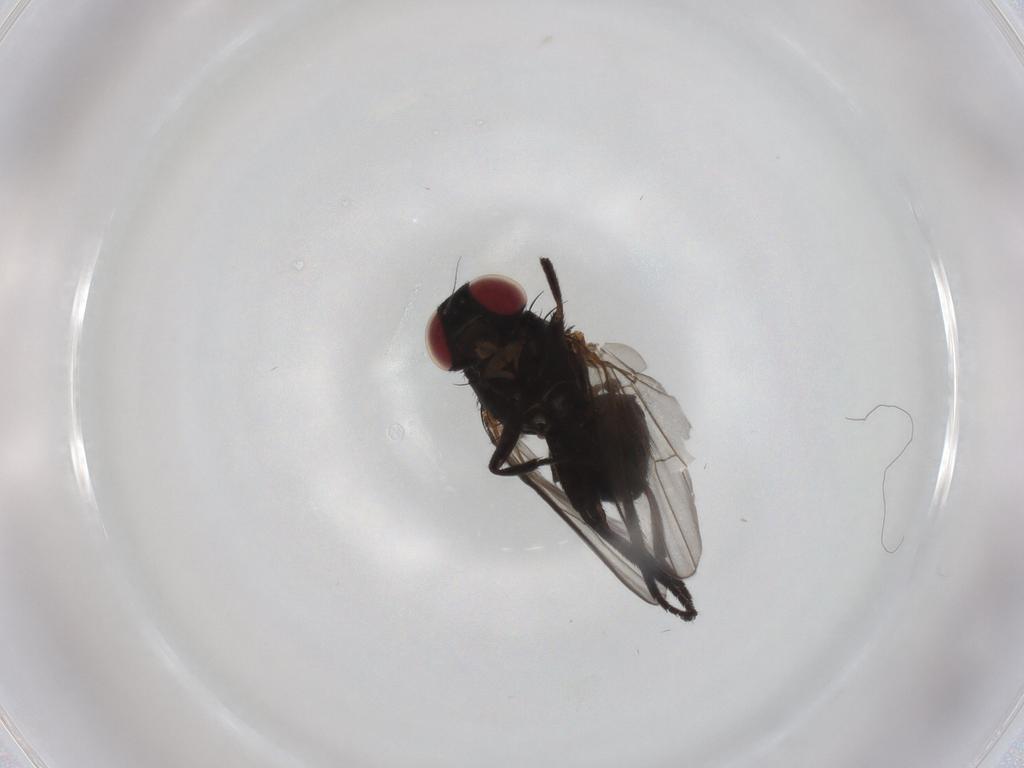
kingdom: Animalia
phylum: Arthropoda
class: Insecta
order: Diptera
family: Agromyzidae
